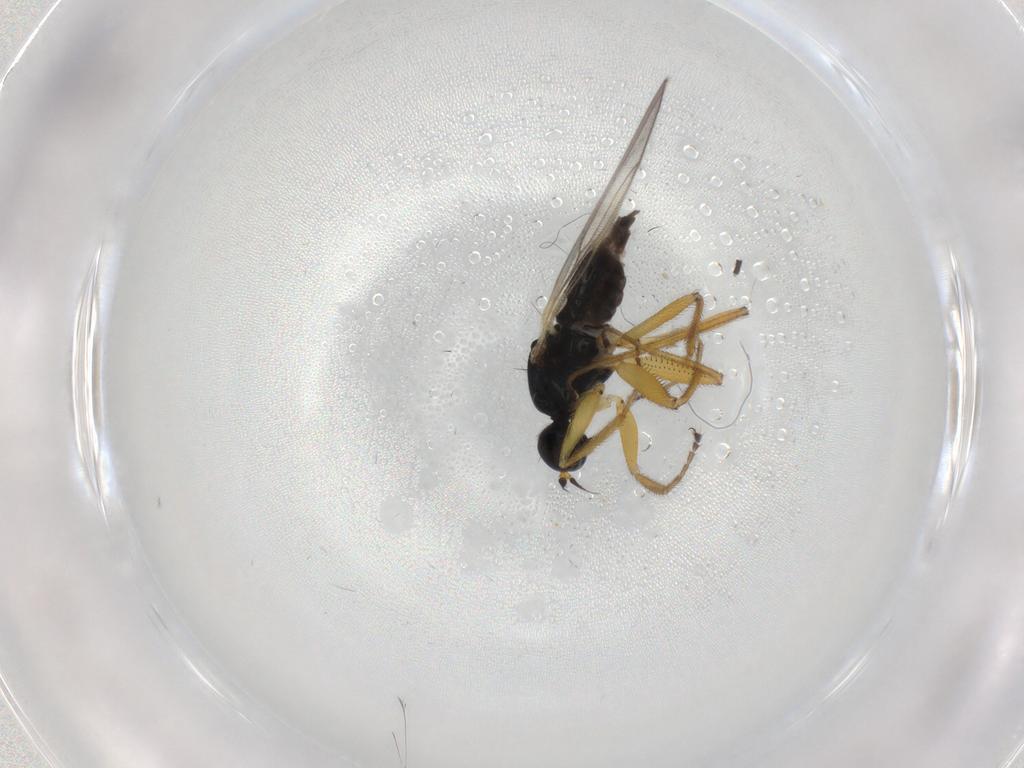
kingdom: Animalia
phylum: Arthropoda
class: Insecta
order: Diptera
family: Hybotidae
